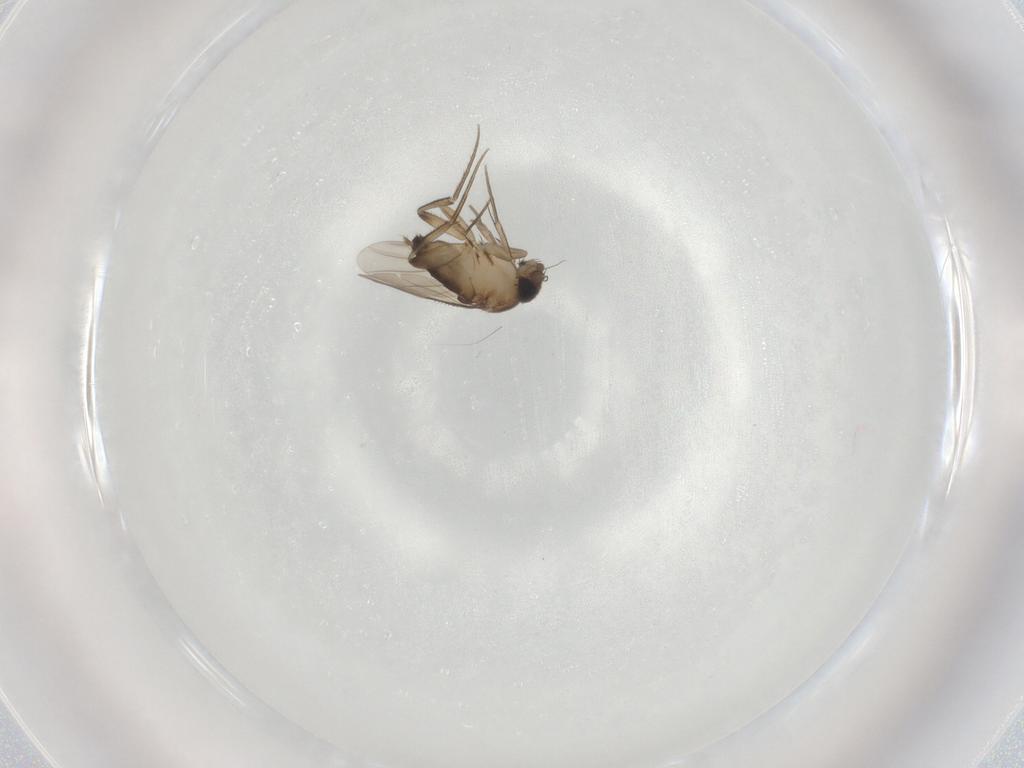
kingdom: Animalia
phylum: Arthropoda
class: Insecta
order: Diptera
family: Phoridae
